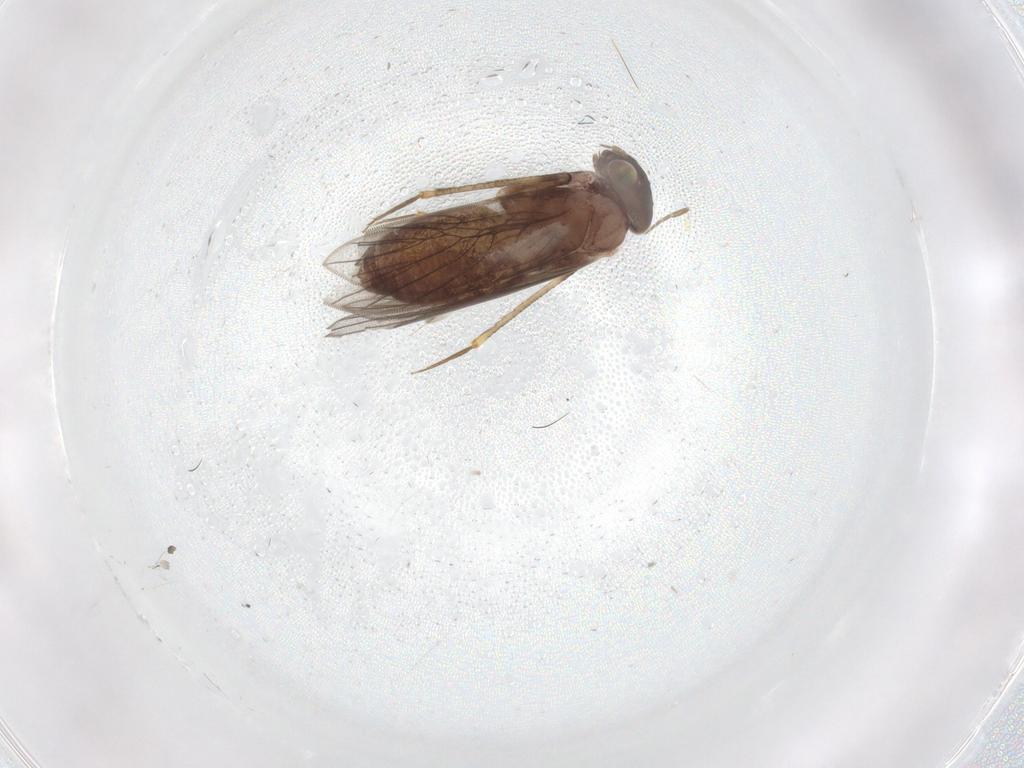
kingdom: Animalia
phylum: Arthropoda
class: Insecta
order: Psocodea
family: Lepidopsocidae
